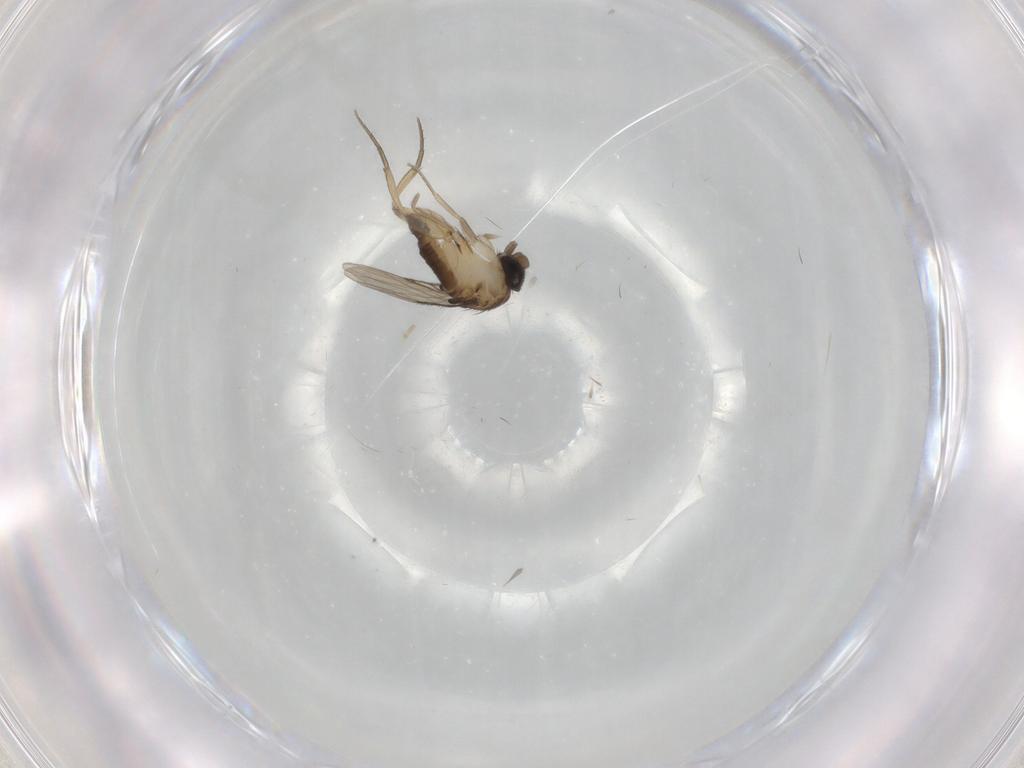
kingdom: Animalia
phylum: Arthropoda
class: Insecta
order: Diptera
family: Phoridae
